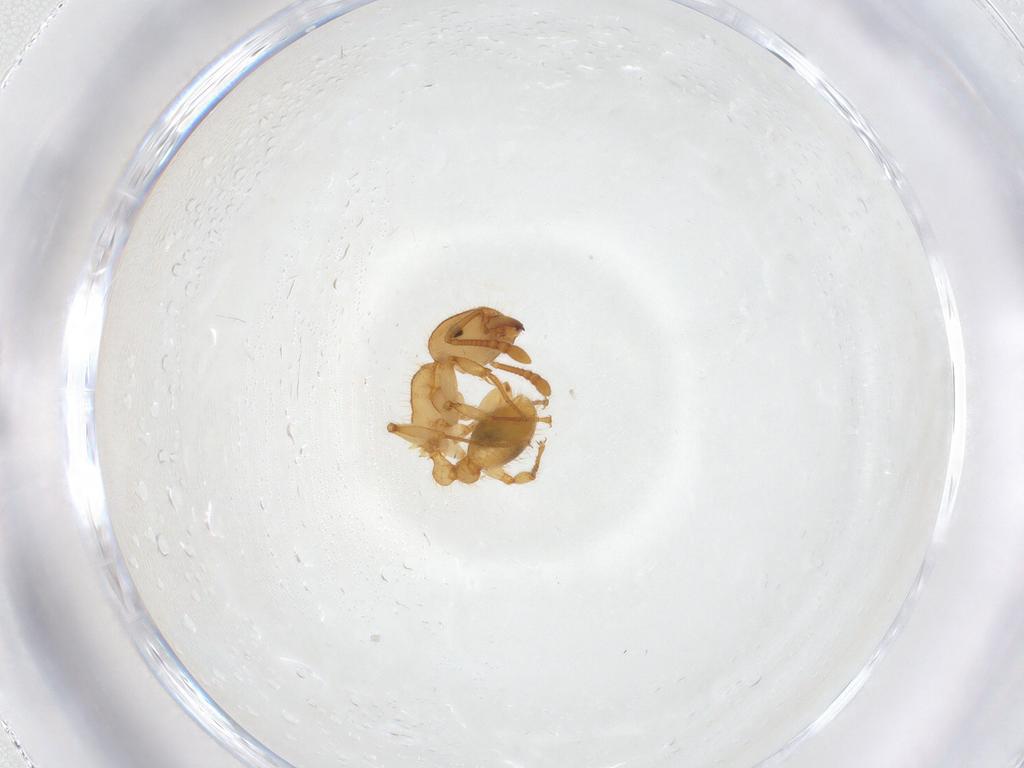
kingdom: Animalia
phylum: Arthropoda
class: Insecta
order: Hymenoptera
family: Formicidae
